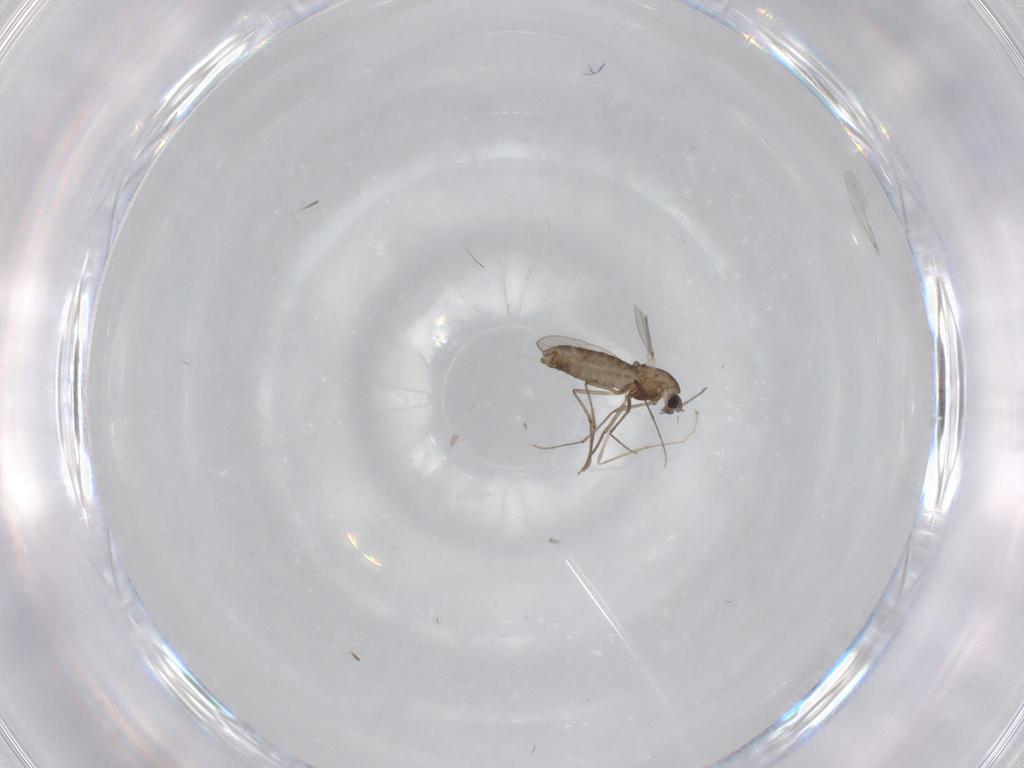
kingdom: Animalia
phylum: Arthropoda
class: Insecta
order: Diptera
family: Cecidomyiidae
